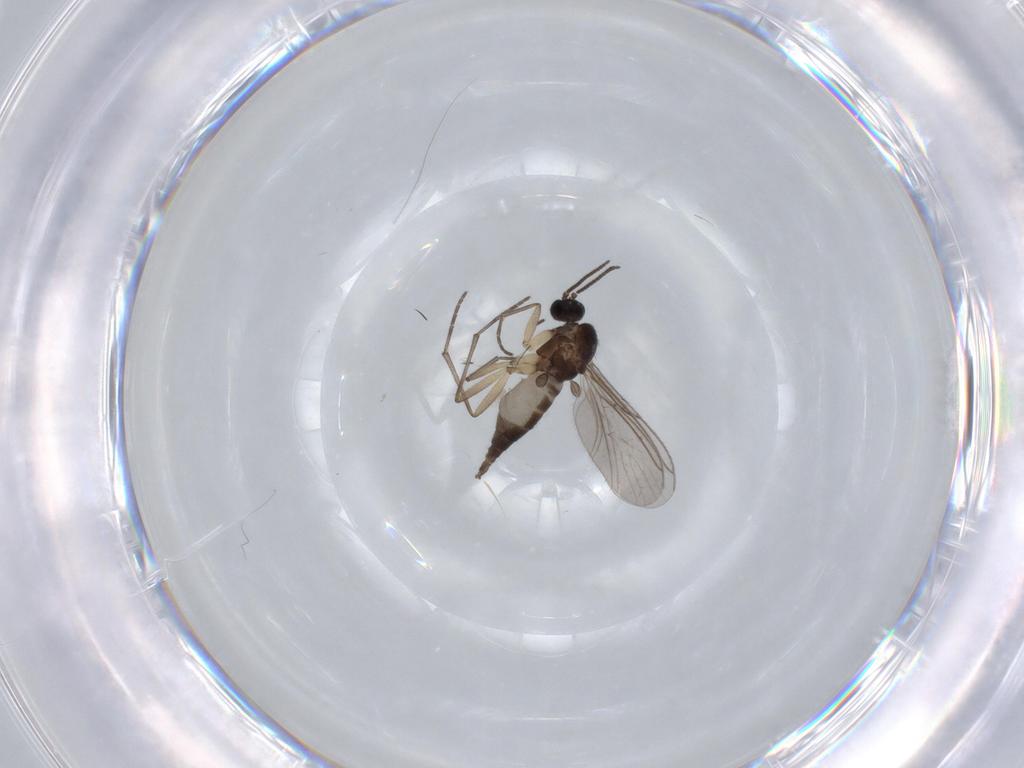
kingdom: Animalia
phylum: Arthropoda
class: Insecta
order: Diptera
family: Sciaridae
